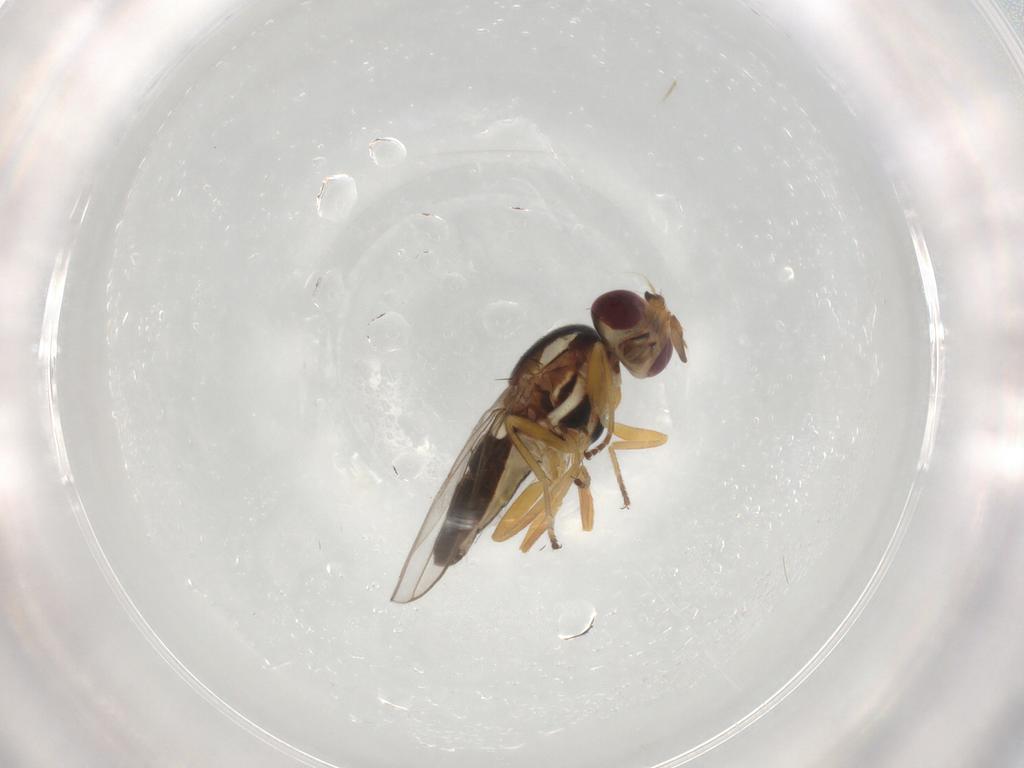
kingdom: Animalia
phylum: Arthropoda
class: Insecta
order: Diptera
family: Chloropidae
